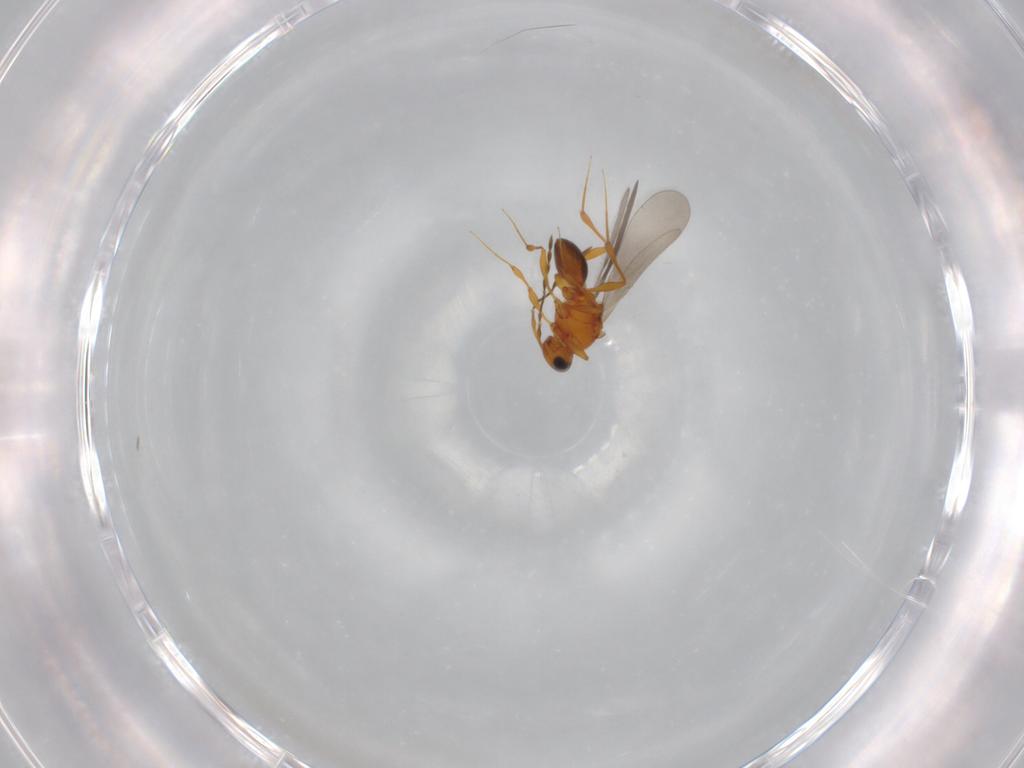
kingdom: Animalia
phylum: Arthropoda
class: Insecta
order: Hymenoptera
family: Platygastridae
